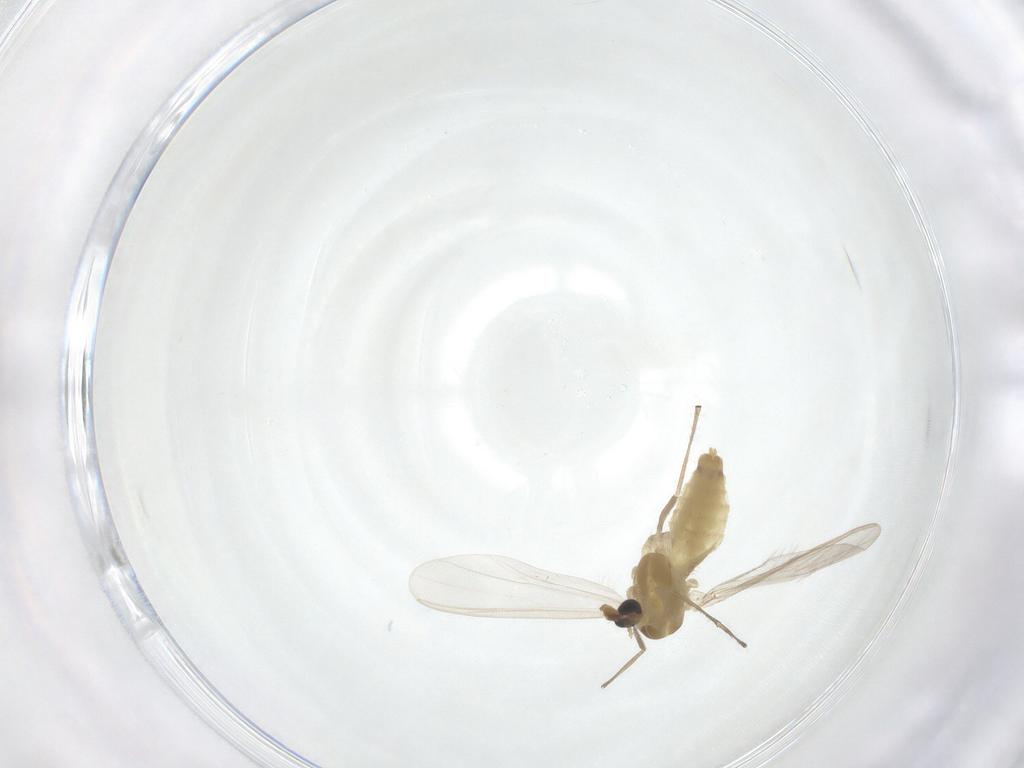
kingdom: Animalia
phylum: Arthropoda
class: Insecta
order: Diptera
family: Chironomidae
